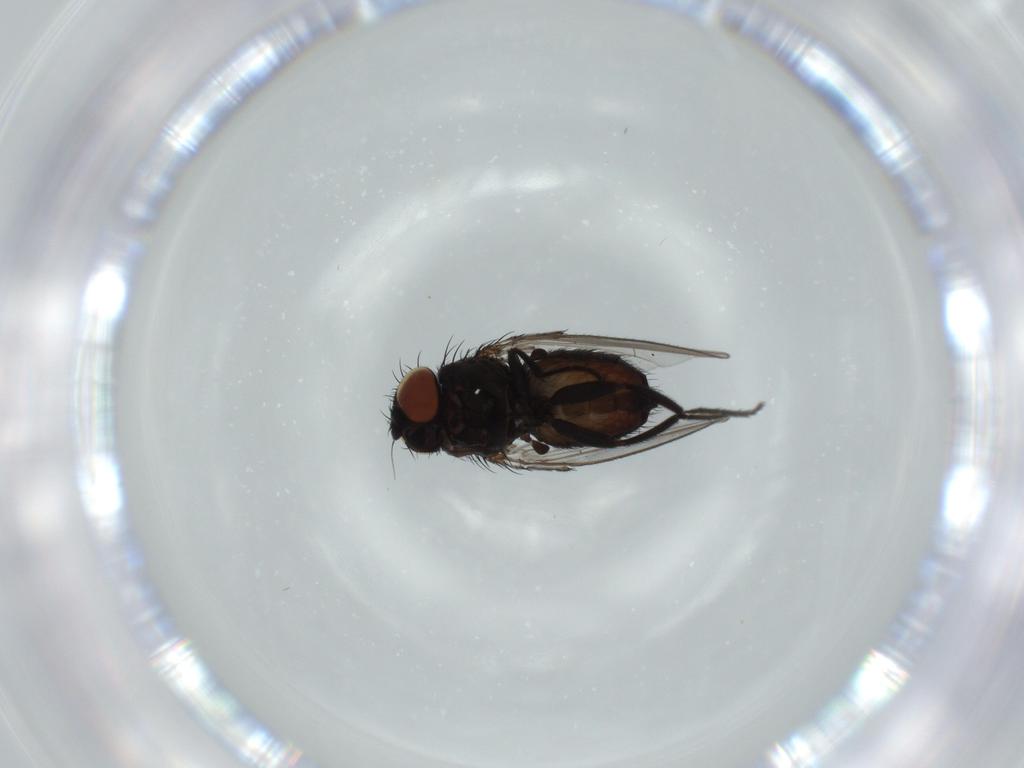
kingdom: Animalia
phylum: Arthropoda
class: Insecta
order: Diptera
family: Milichiidae
